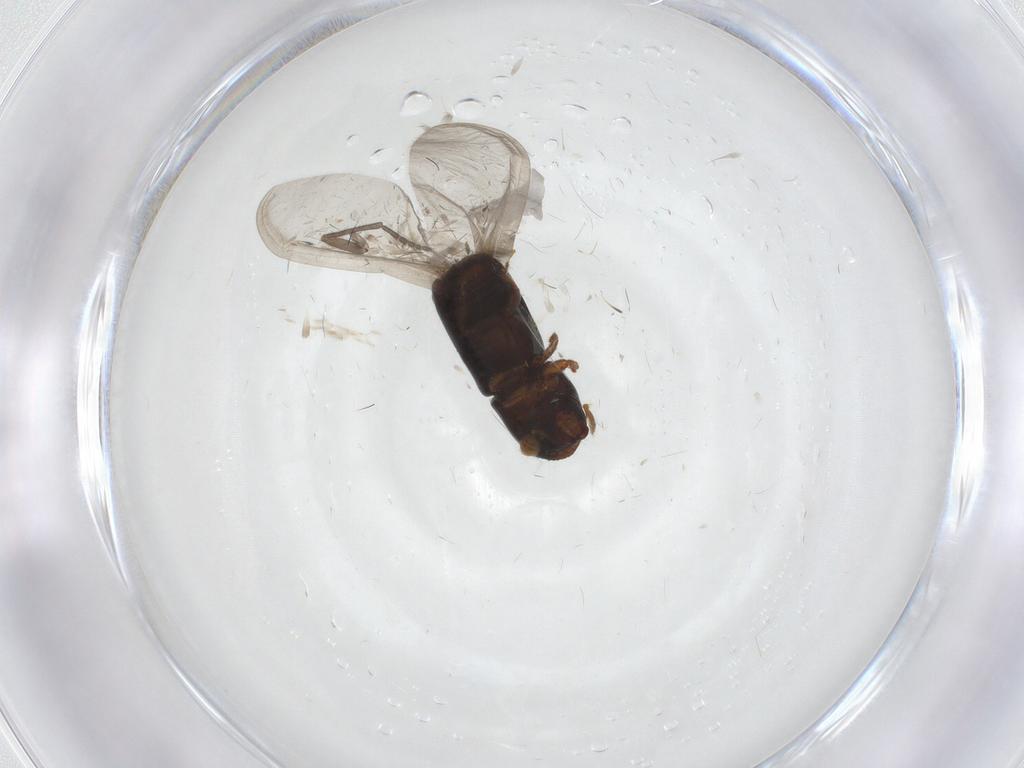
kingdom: Animalia
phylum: Arthropoda
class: Insecta
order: Coleoptera
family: Curculionidae
